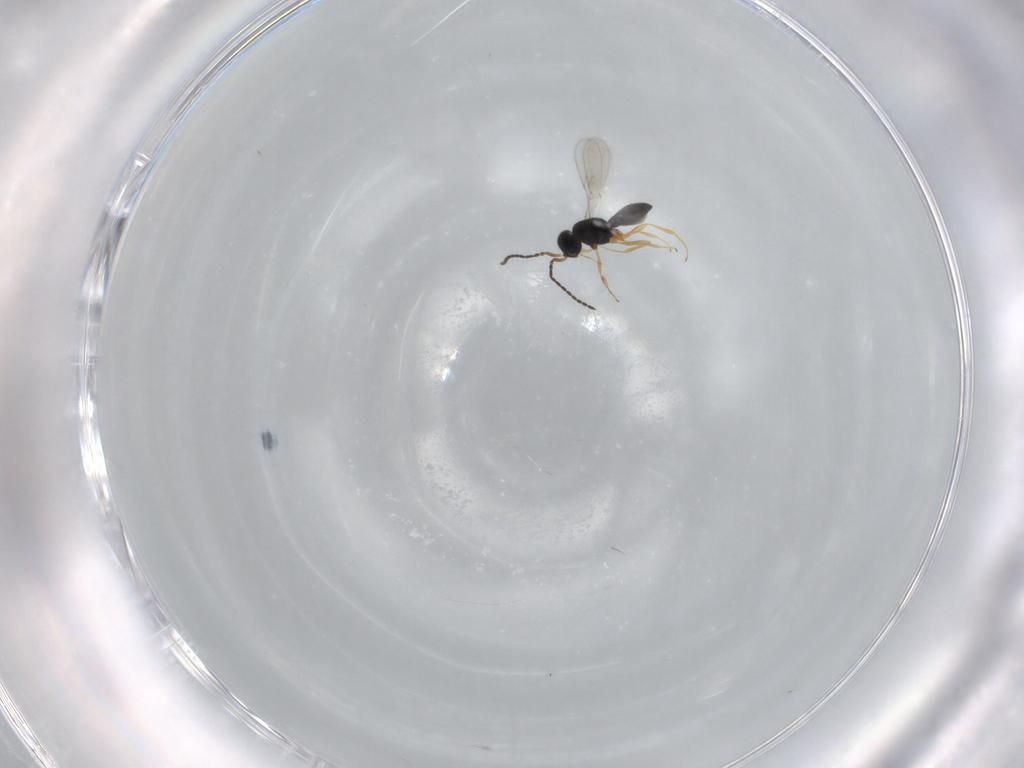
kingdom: Animalia
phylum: Arthropoda
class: Insecta
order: Hymenoptera
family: Scelionidae
